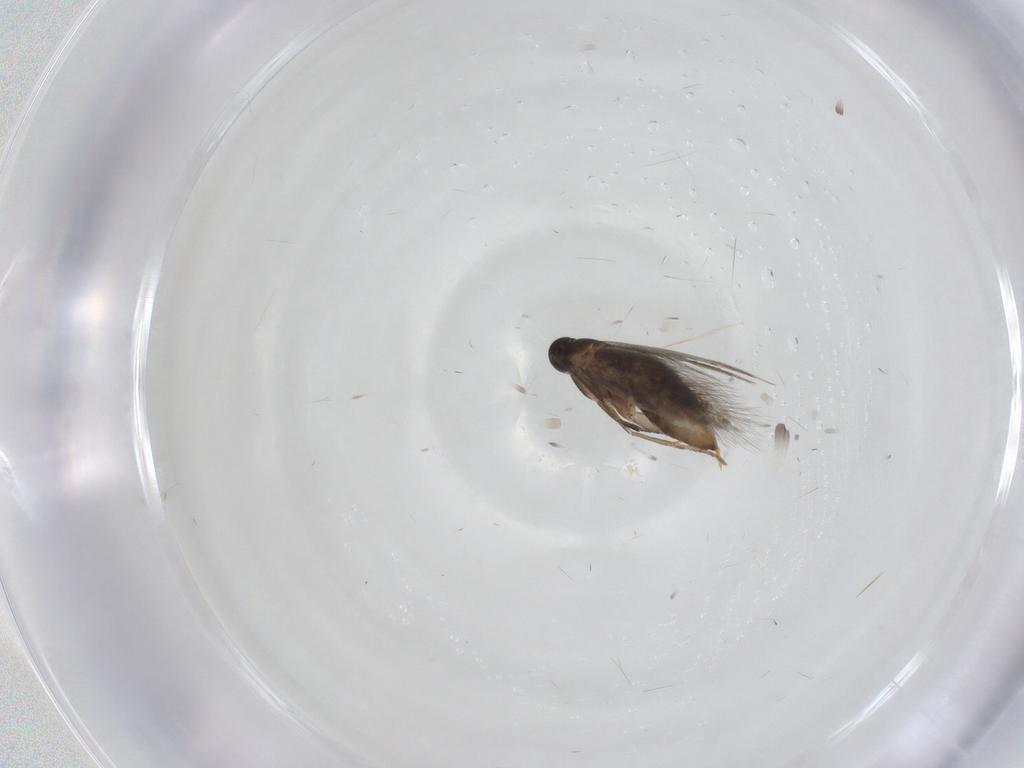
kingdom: Animalia
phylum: Arthropoda
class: Insecta
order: Lepidoptera
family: Heliozelidae
